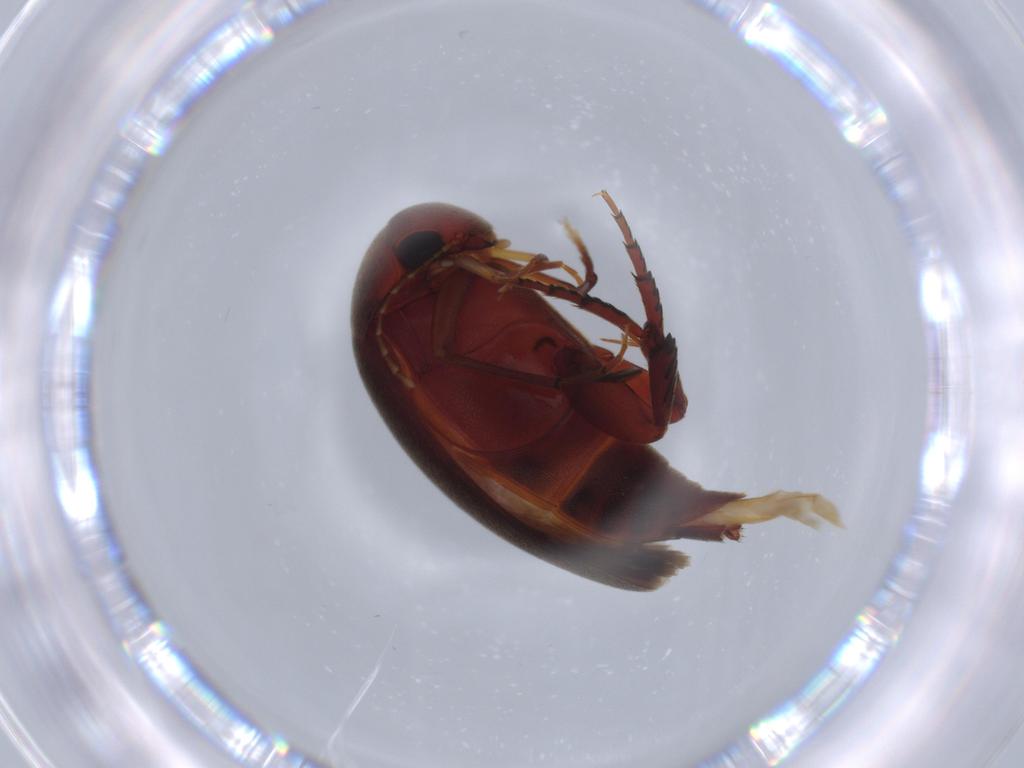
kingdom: Animalia
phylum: Arthropoda
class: Insecta
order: Coleoptera
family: Mordellidae
